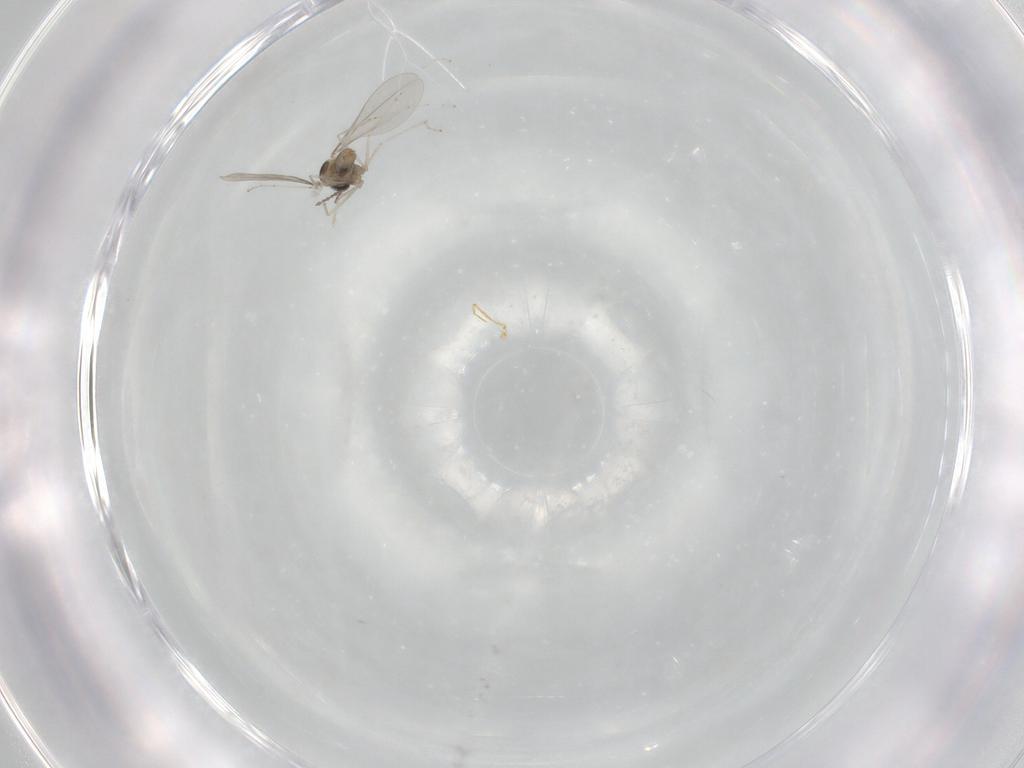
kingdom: Animalia
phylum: Arthropoda
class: Insecta
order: Diptera
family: Cecidomyiidae
